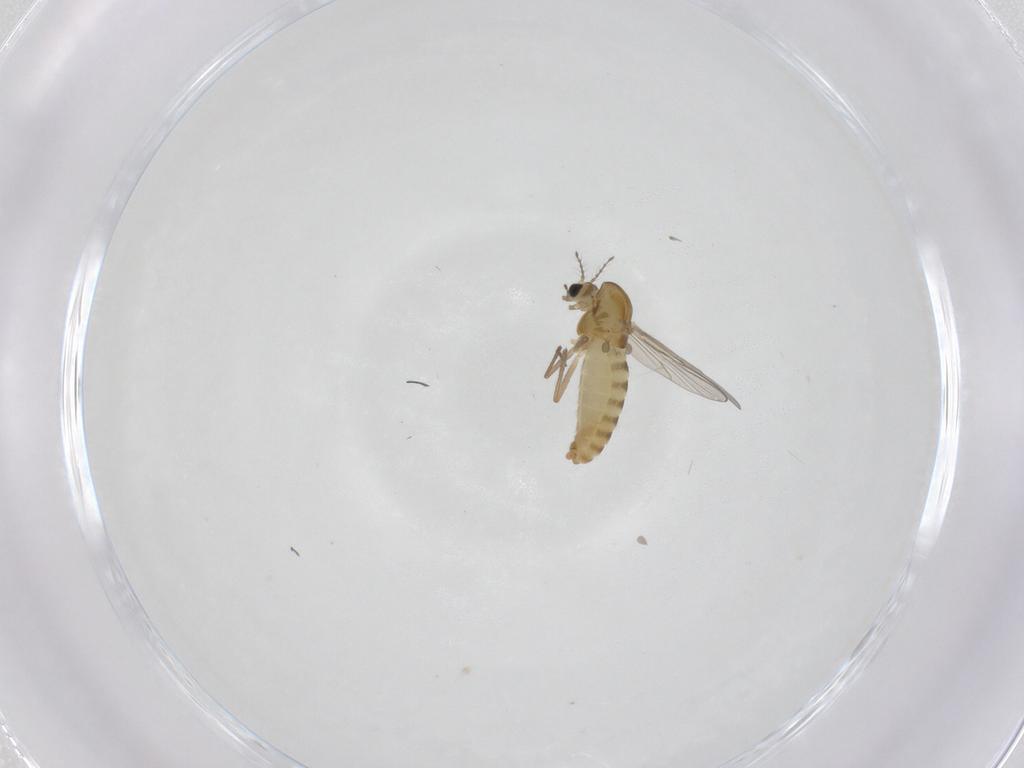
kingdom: Animalia
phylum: Arthropoda
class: Insecta
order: Diptera
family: Chironomidae
